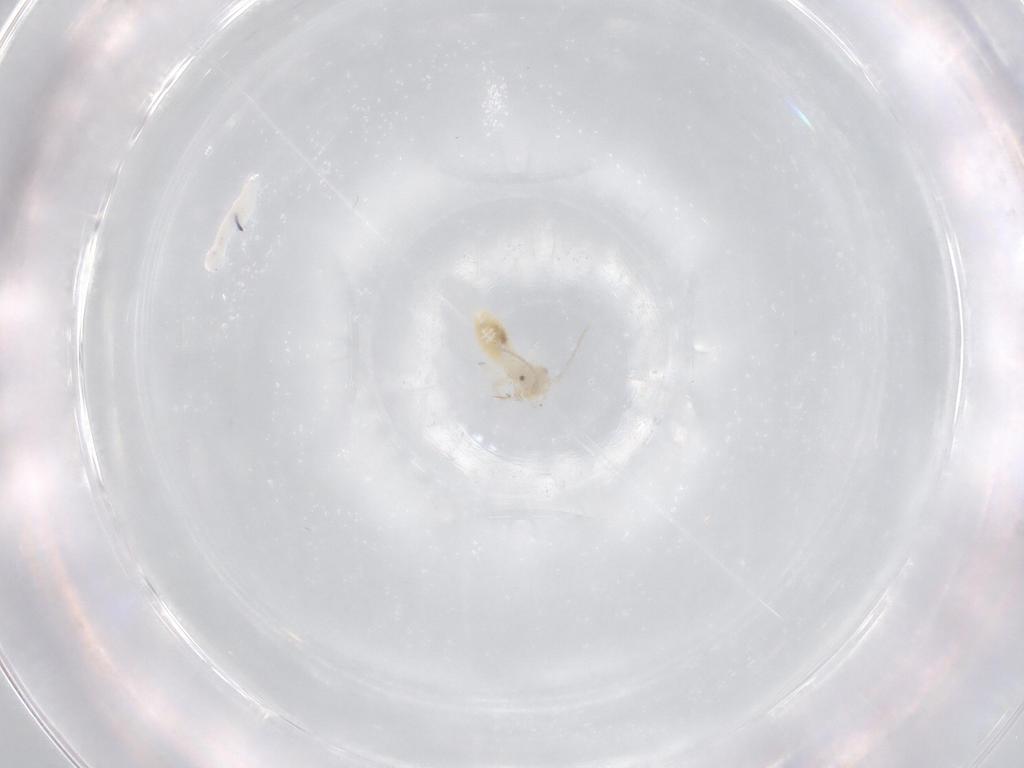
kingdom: Animalia
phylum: Arthropoda
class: Insecta
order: Psocodea
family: Stenopsocidae
